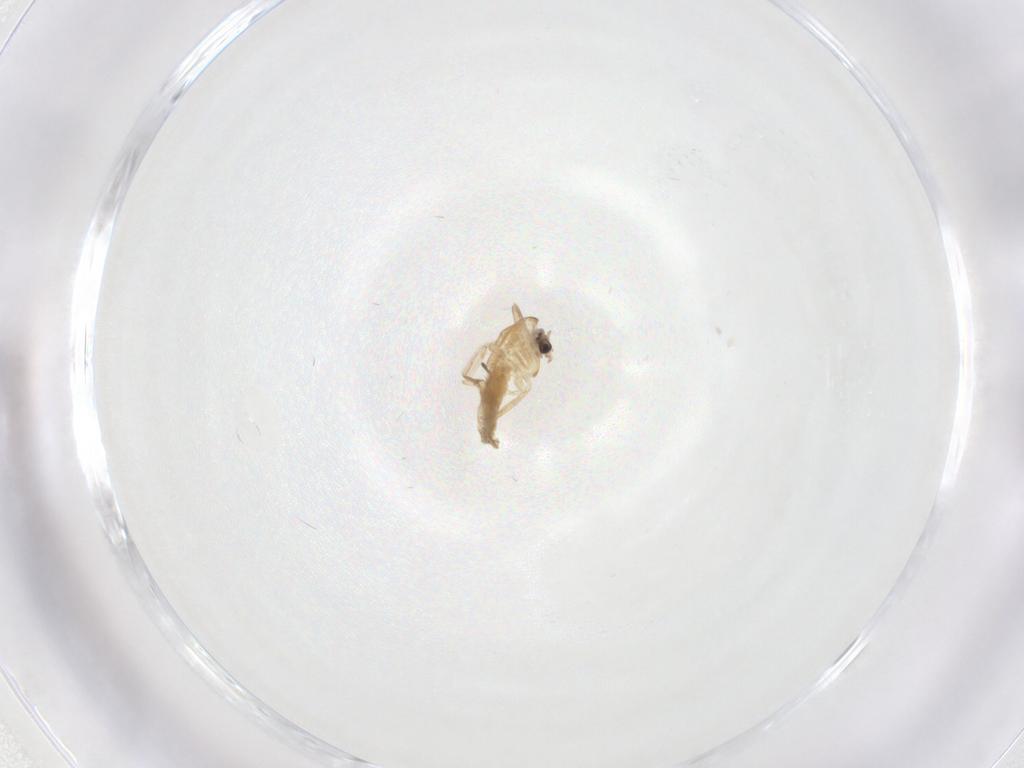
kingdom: Animalia
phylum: Arthropoda
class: Insecta
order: Diptera
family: Chironomidae
